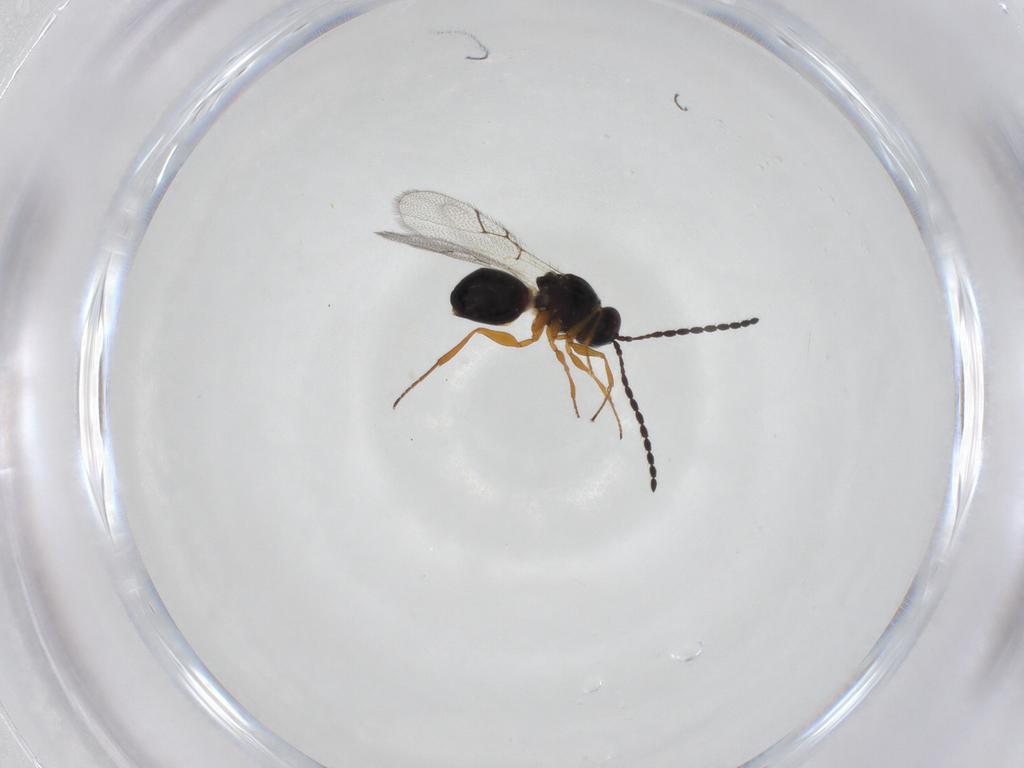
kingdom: Animalia
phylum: Arthropoda
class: Insecta
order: Hymenoptera
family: Figitidae
